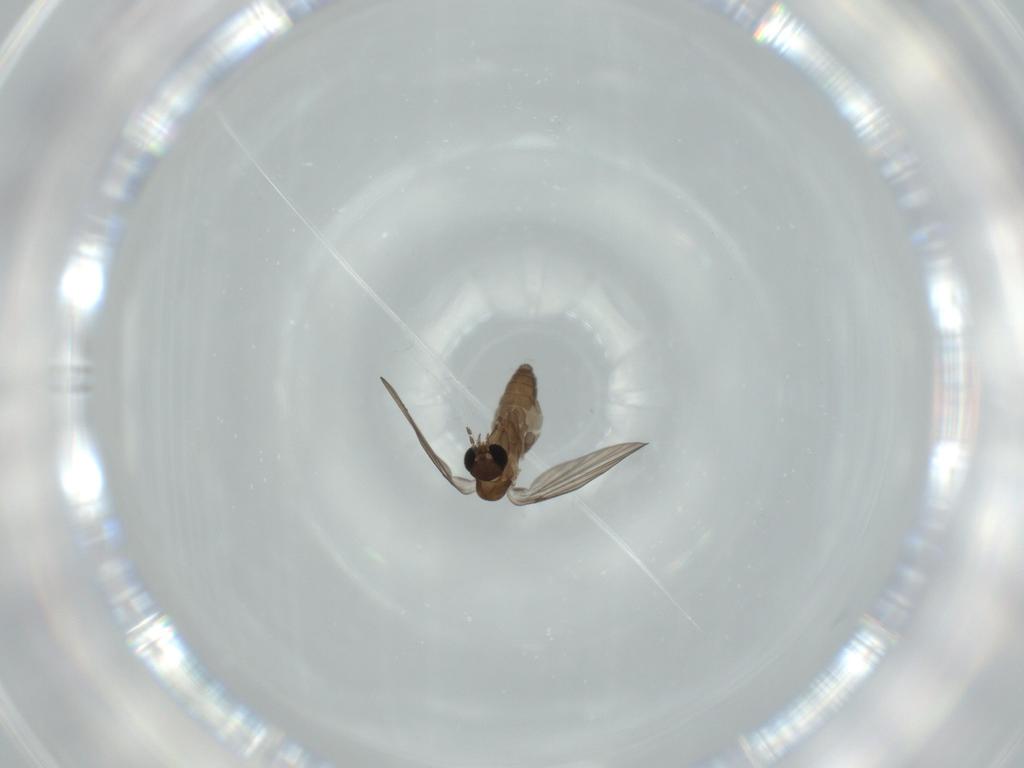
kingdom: Animalia
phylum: Arthropoda
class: Insecta
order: Diptera
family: Psychodidae
